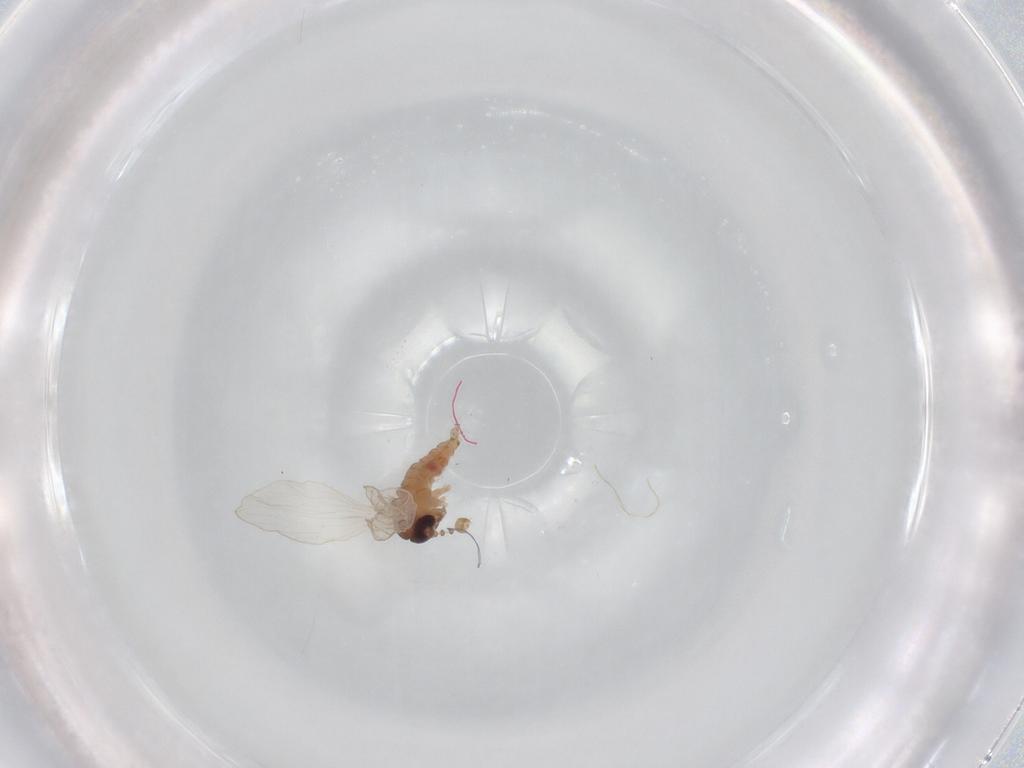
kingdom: Animalia
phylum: Arthropoda
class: Insecta
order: Diptera
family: Psychodidae
